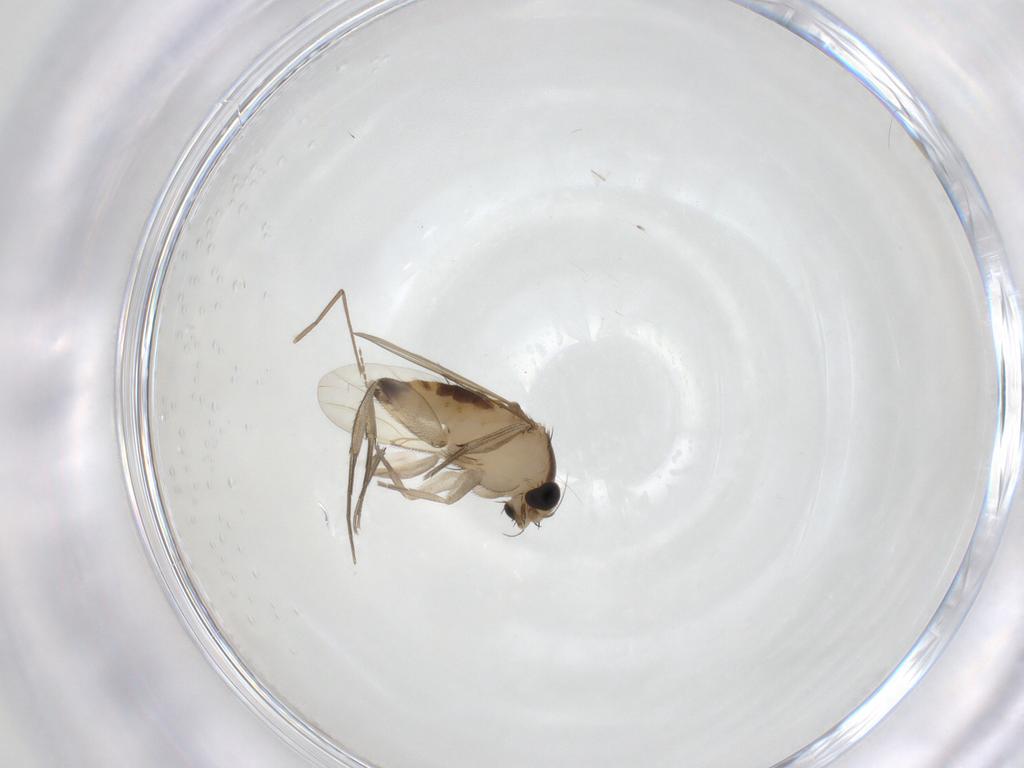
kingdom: Animalia
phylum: Arthropoda
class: Insecta
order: Diptera
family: Phoridae
